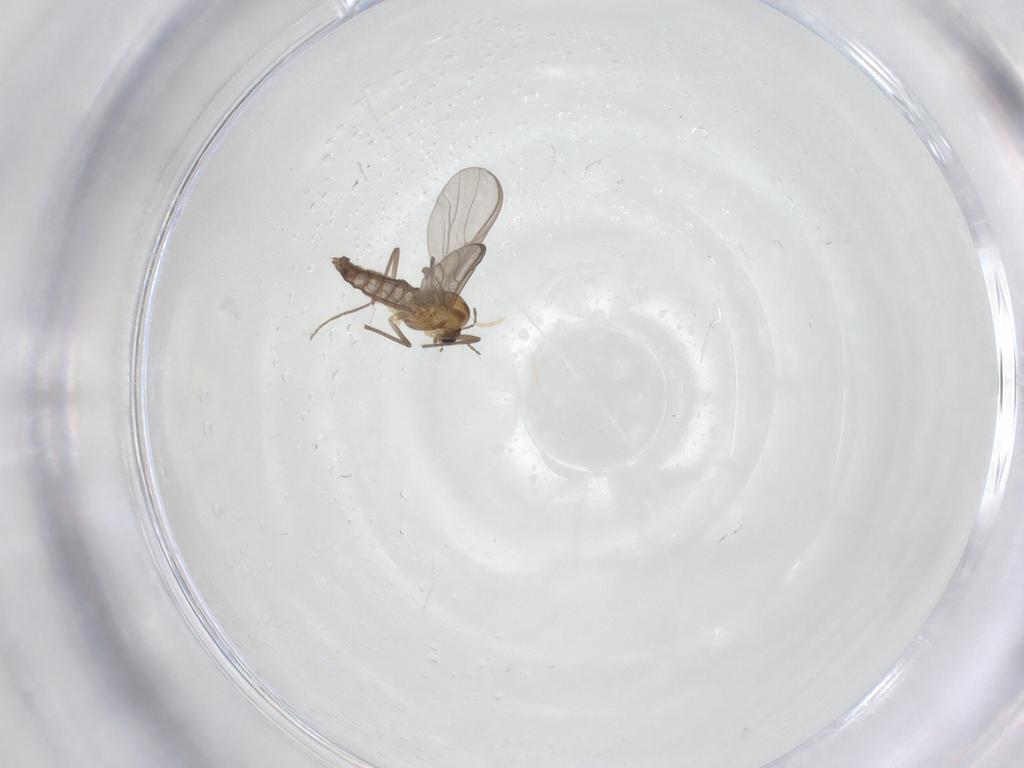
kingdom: Animalia
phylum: Arthropoda
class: Insecta
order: Diptera
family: Chironomidae
